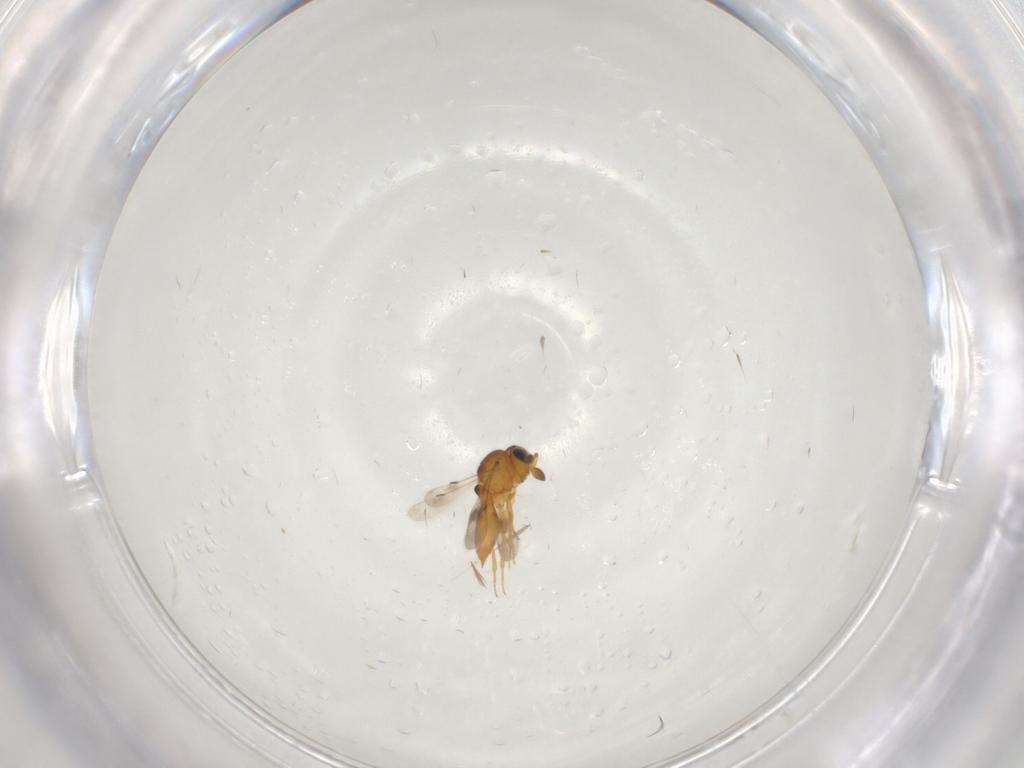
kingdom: Animalia
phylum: Arthropoda
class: Insecta
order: Hymenoptera
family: Scelionidae
